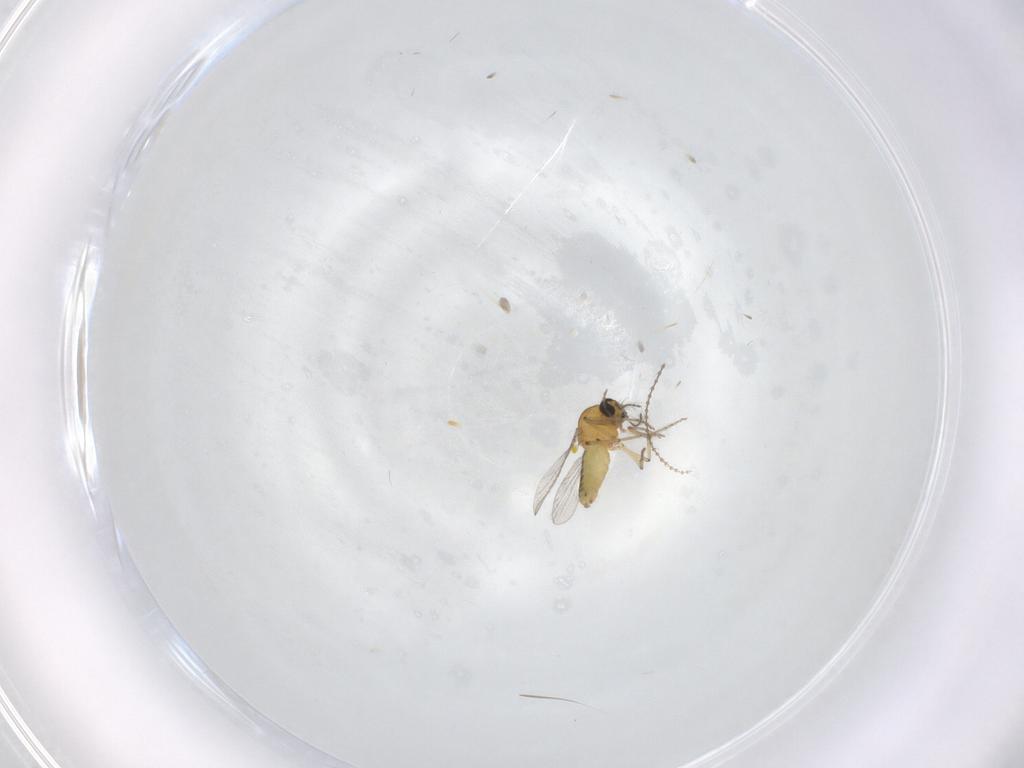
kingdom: Animalia
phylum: Arthropoda
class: Insecta
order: Diptera
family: Ceratopogonidae
